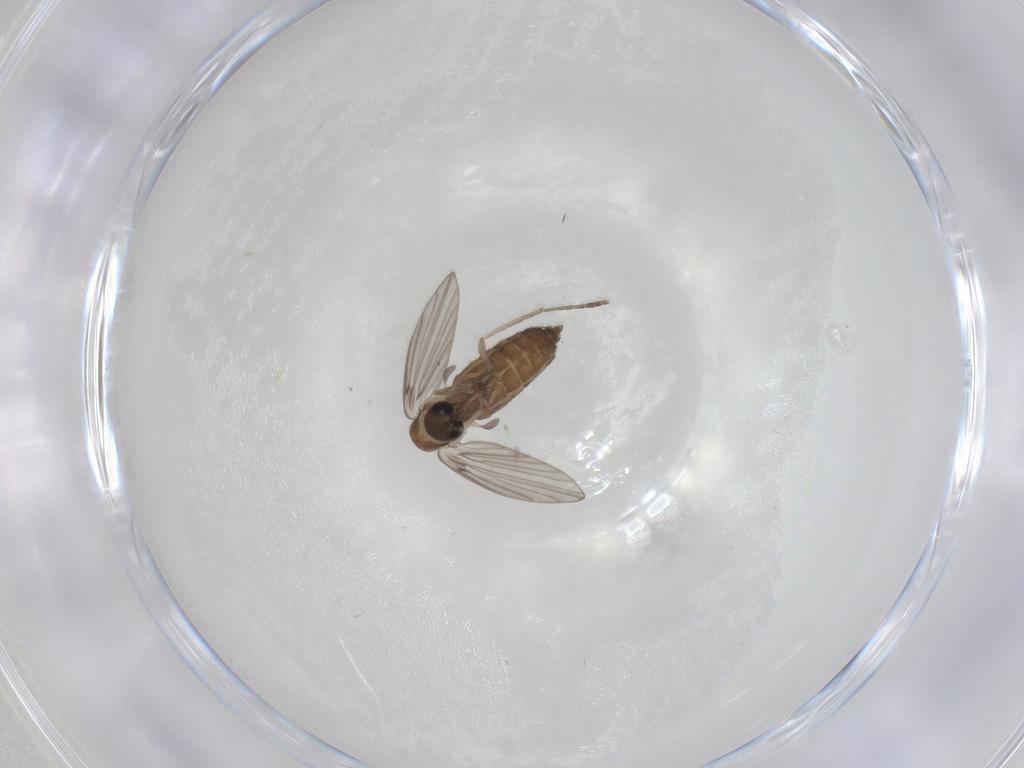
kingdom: Animalia
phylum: Arthropoda
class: Insecta
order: Diptera
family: Psychodidae
